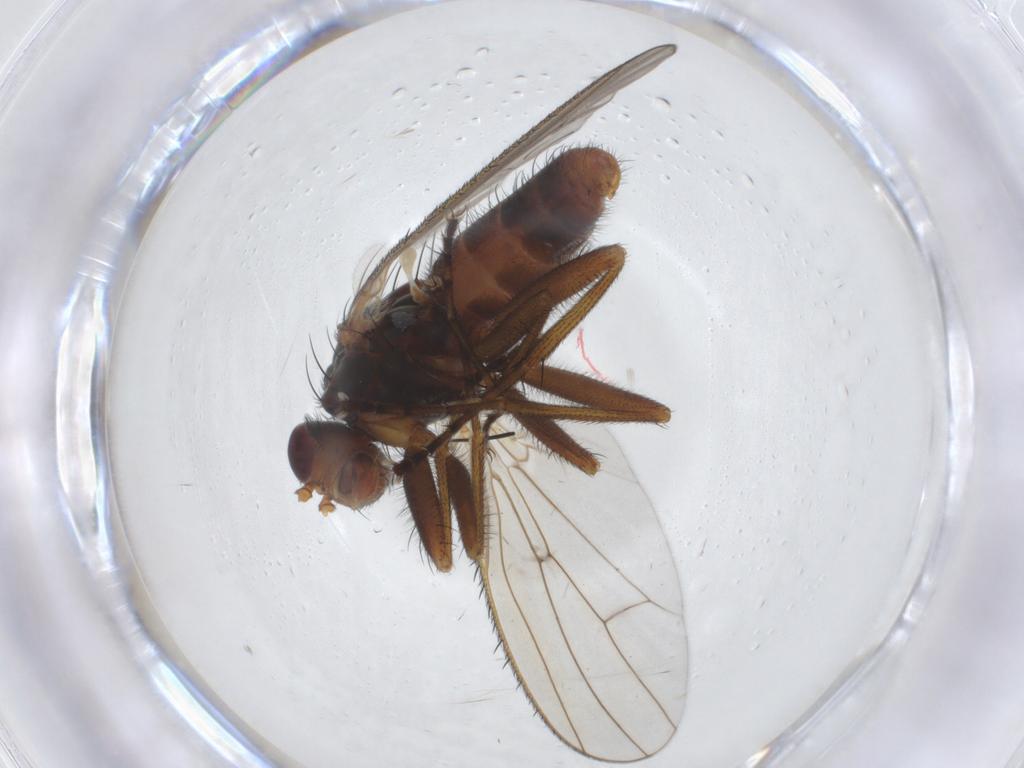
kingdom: Animalia
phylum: Arthropoda
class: Insecta
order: Diptera
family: Heleomyzidae
